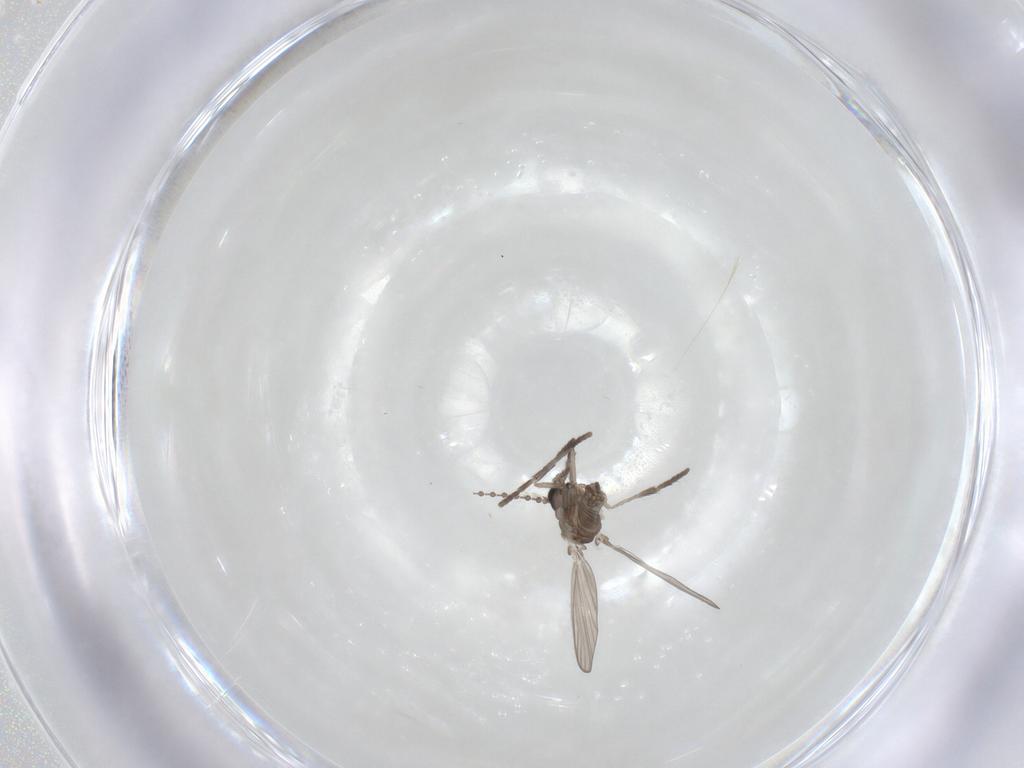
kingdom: Animalia
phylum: Arthropoda
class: Insecta
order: Diptera
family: Psychodidae
